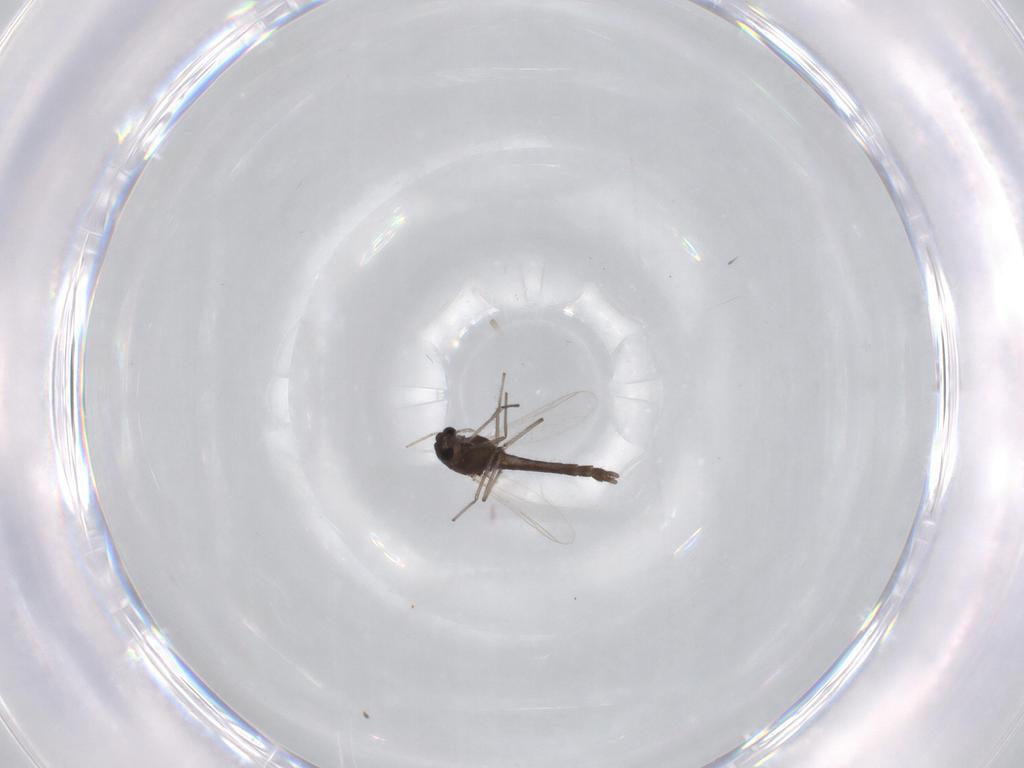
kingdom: Animalia
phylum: Arthropoda
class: Insecta
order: Diptera
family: Chironomidae
